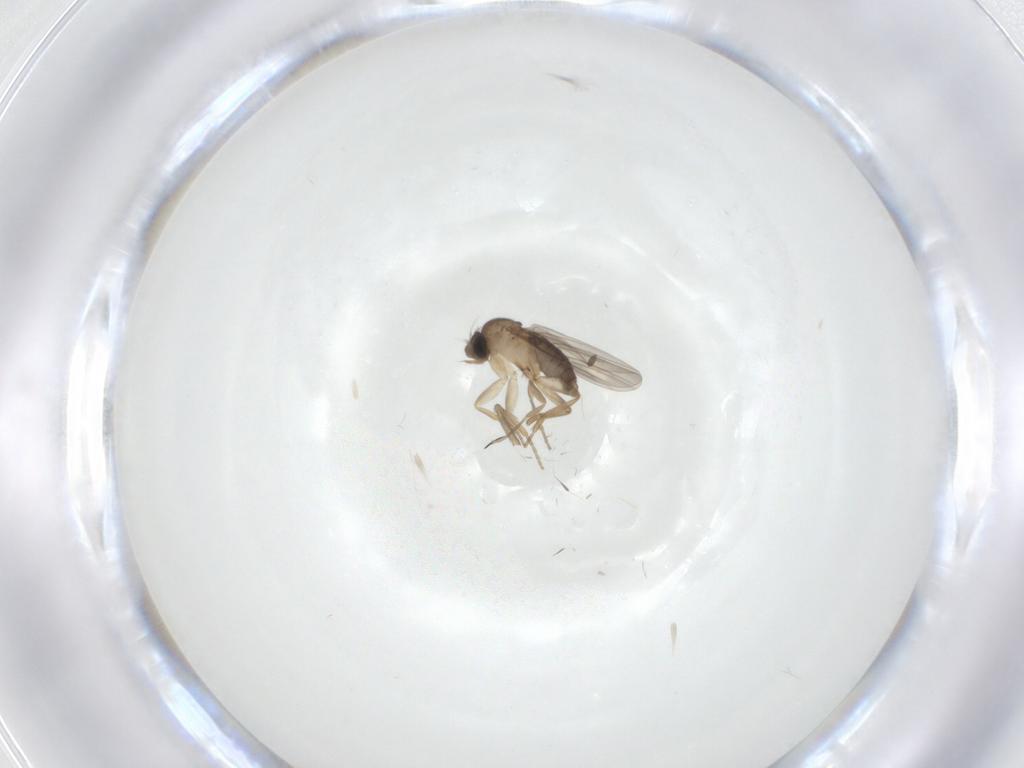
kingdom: Animalia
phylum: Arthropoda
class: Insecta
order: Diptera
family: Phoridae
